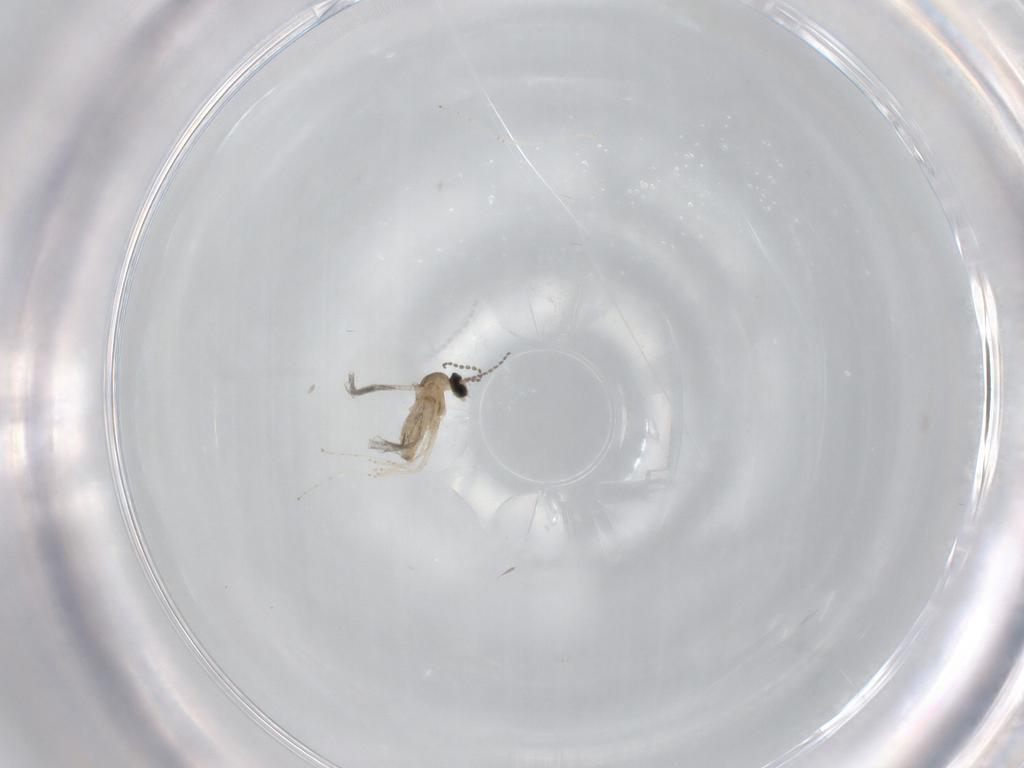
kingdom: Animalia
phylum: Arthropoda
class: Insecta
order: Diptera
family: Cecidomyiidae
